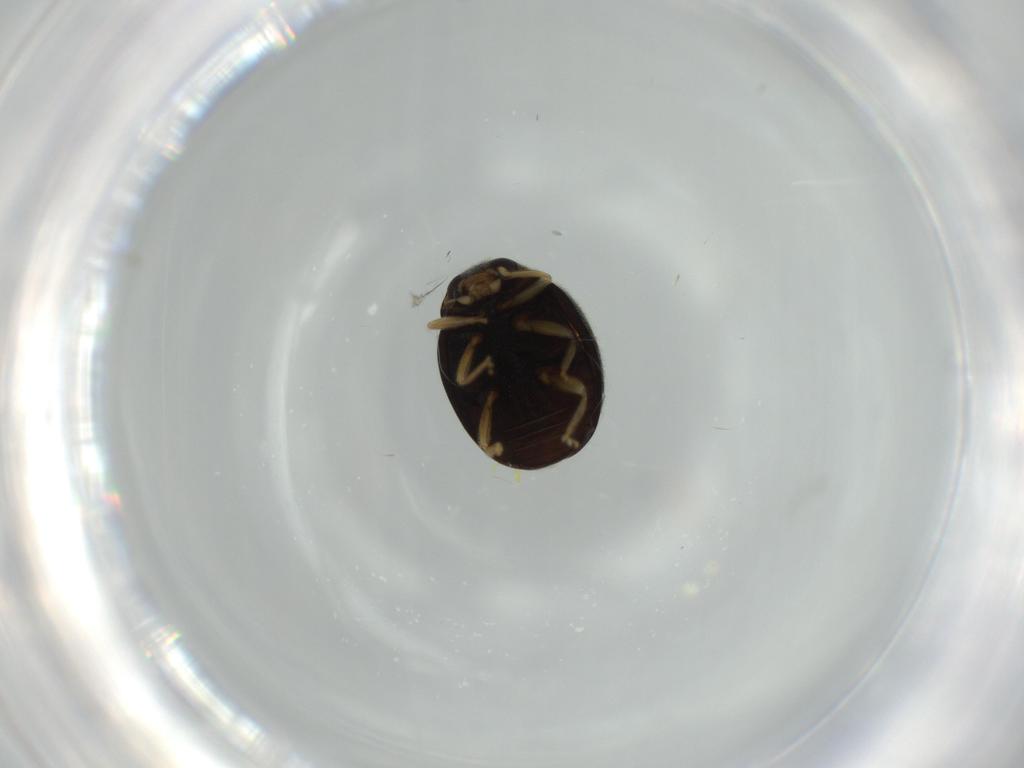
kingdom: Animalia
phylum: Arthropoda
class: Insecta
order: Coleoptera
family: Coccinellidae
